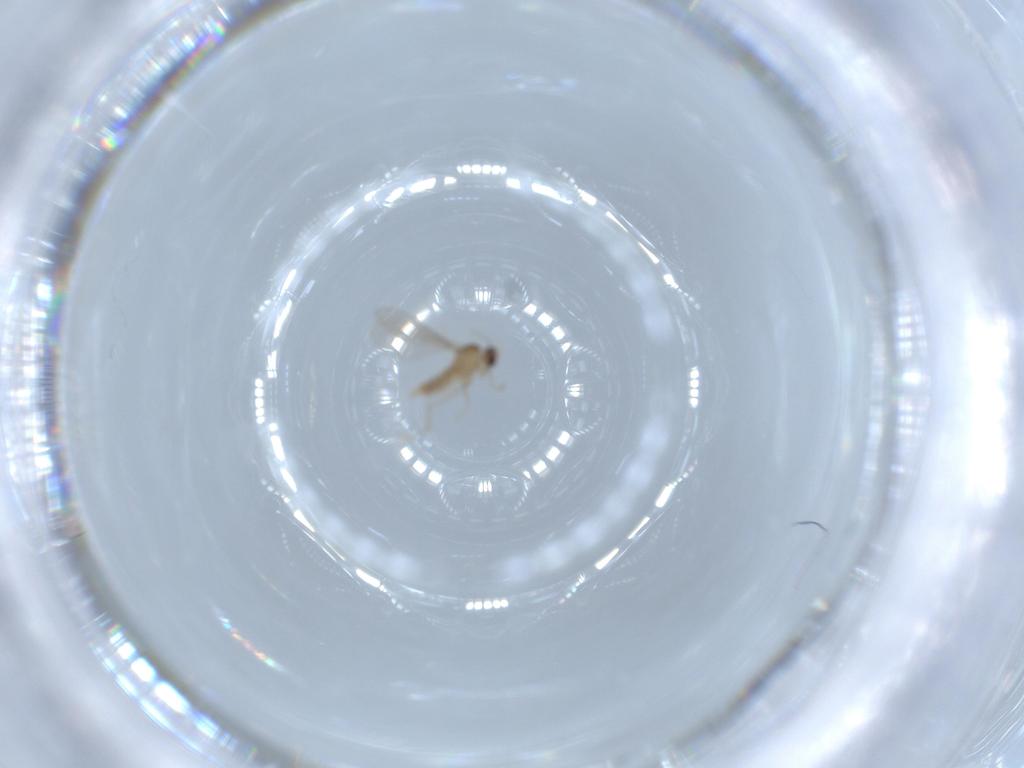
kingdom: Animalia
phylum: Arthropoda
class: Insecta
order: Diptera
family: Cecidomyiidae
